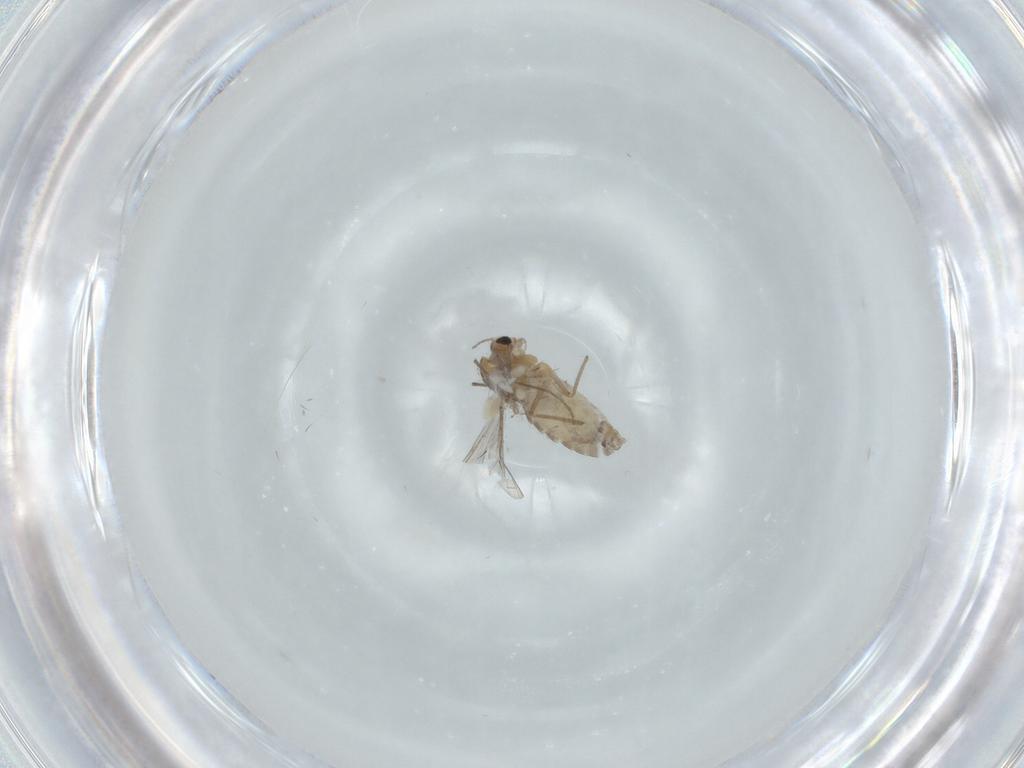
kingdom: Animalia
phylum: Arthropoda
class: Insecta
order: Diptera
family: Chironomidae
